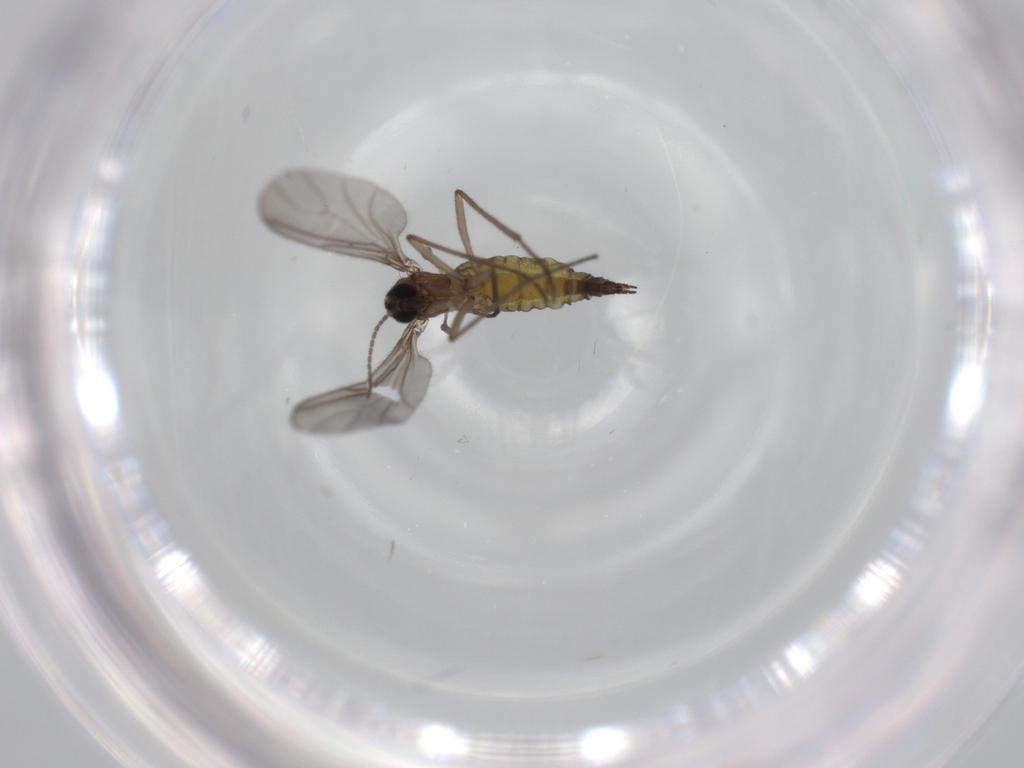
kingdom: Animalia
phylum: Arthropoda
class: Insecta
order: Diptera
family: Sciaridae
